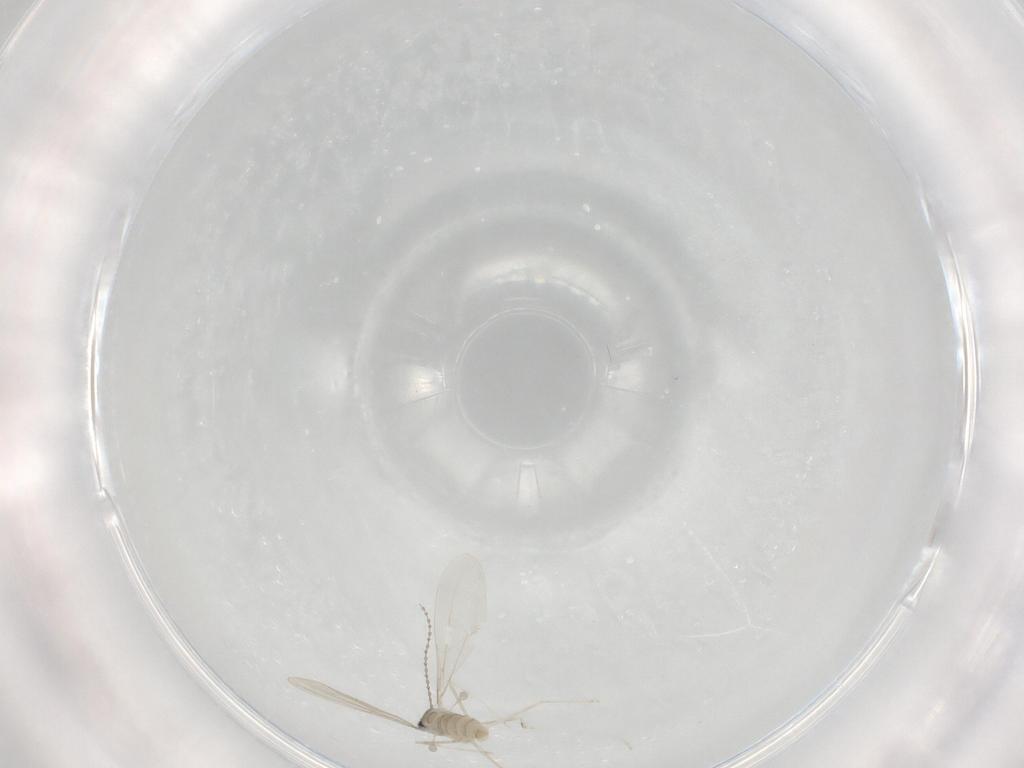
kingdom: Animalia
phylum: Arthropoda
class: Insecta
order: Diptera
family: Cecidomyiidae
